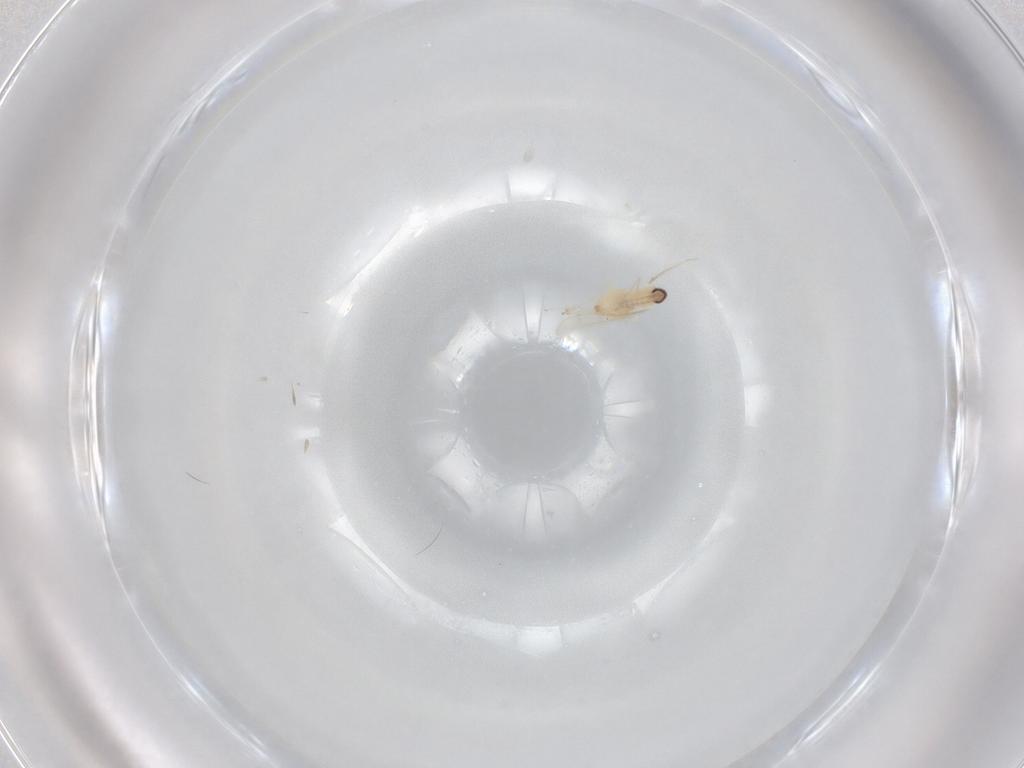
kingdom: Animalia
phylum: Arthropoda
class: Insecta
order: Diptera
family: Cecidomyiidae
